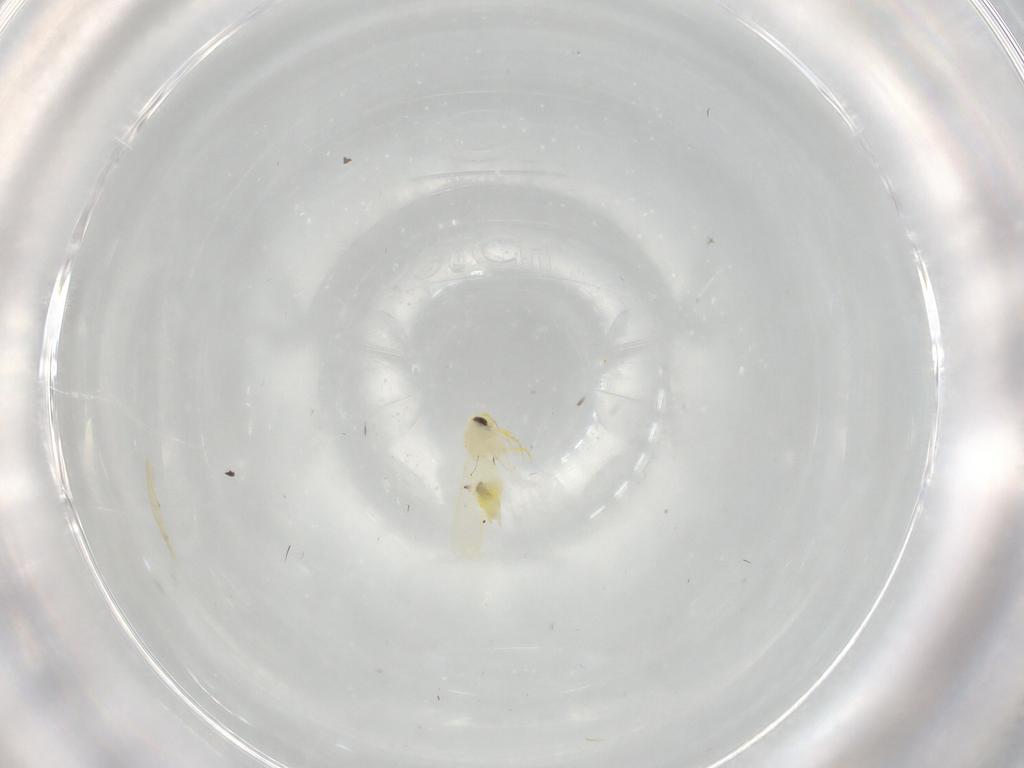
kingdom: Animalia
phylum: Arthropoda
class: Insecta
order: Hemiptera
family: Aleyrodidae
